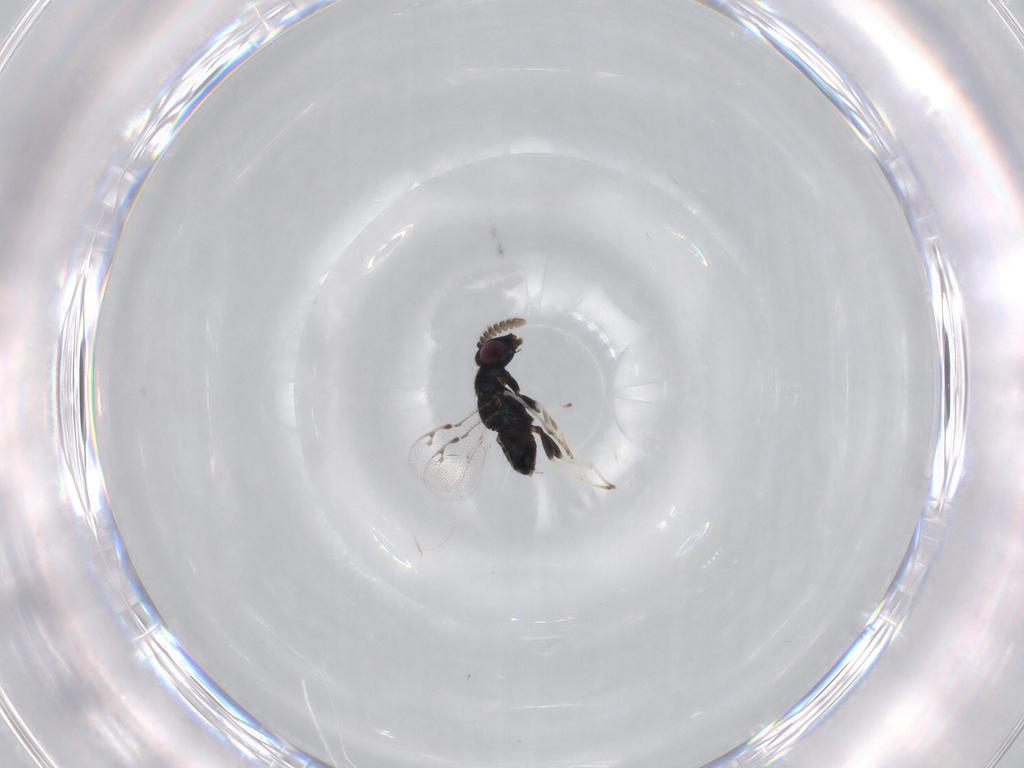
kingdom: Animalia
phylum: Arthropoda
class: Insecta
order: Hymenoptera
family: Pirenidae
